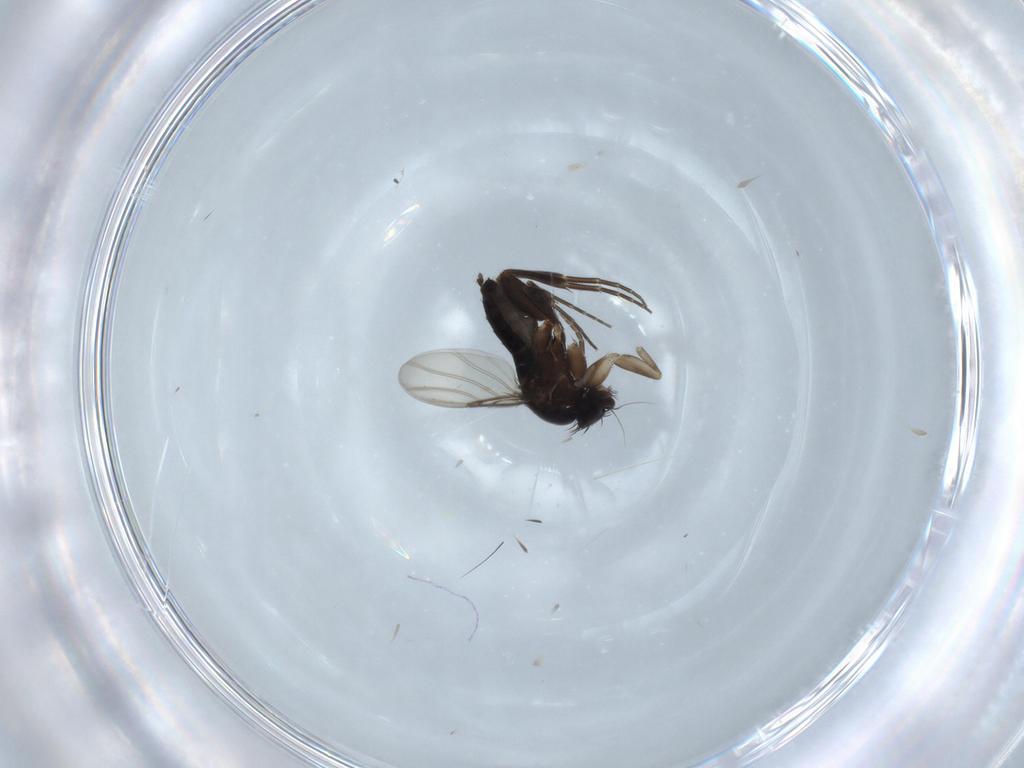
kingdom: Animalia
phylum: Arthropoda
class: Insecta
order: Diptera
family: Phoridae
